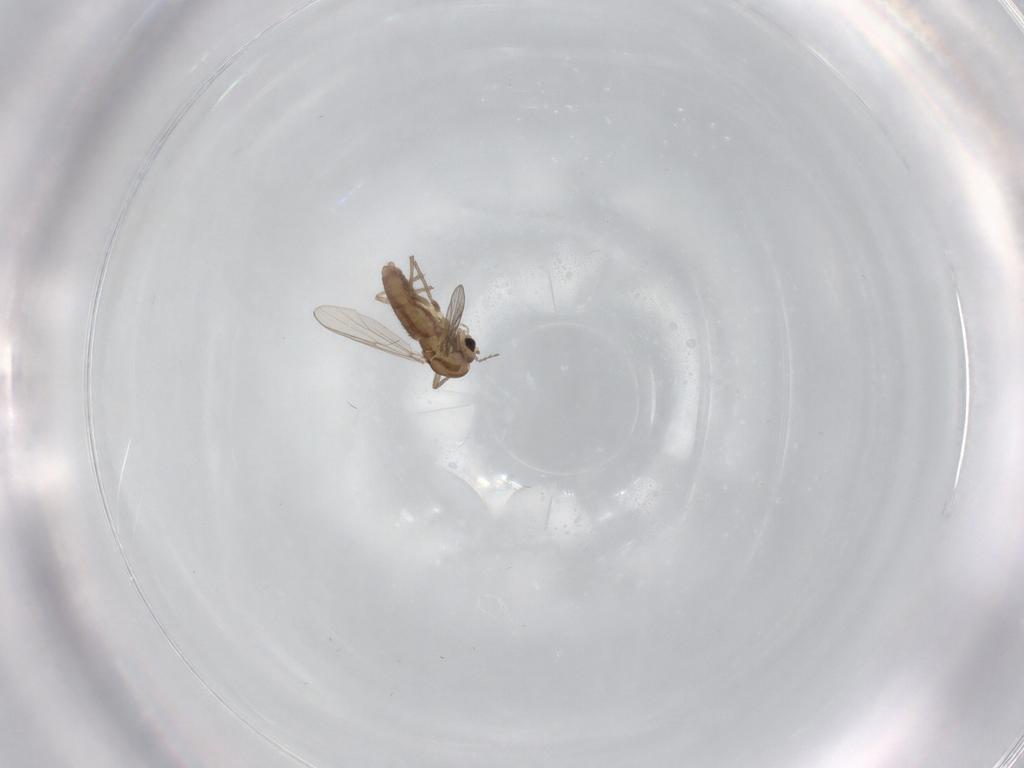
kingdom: Animalia
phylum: Arthropoda
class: Insecta
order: Diptera
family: Chironomidae
